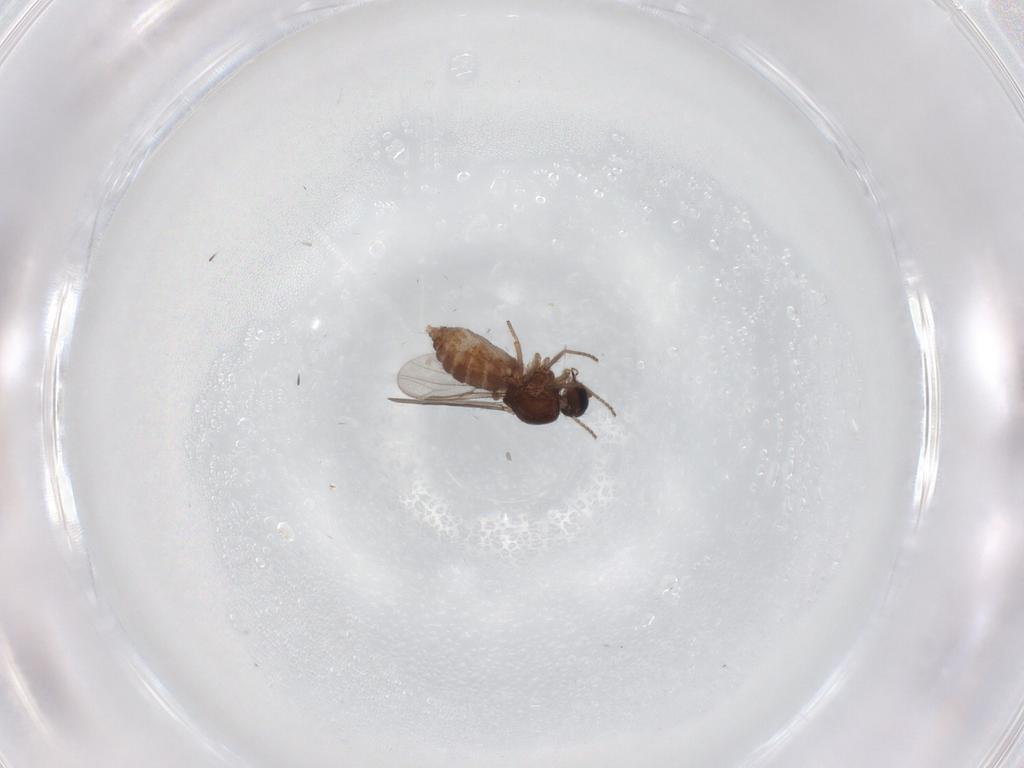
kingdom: Animalia
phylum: Arthropoda
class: Insecta
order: Diptera
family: Ceratopogonidae
